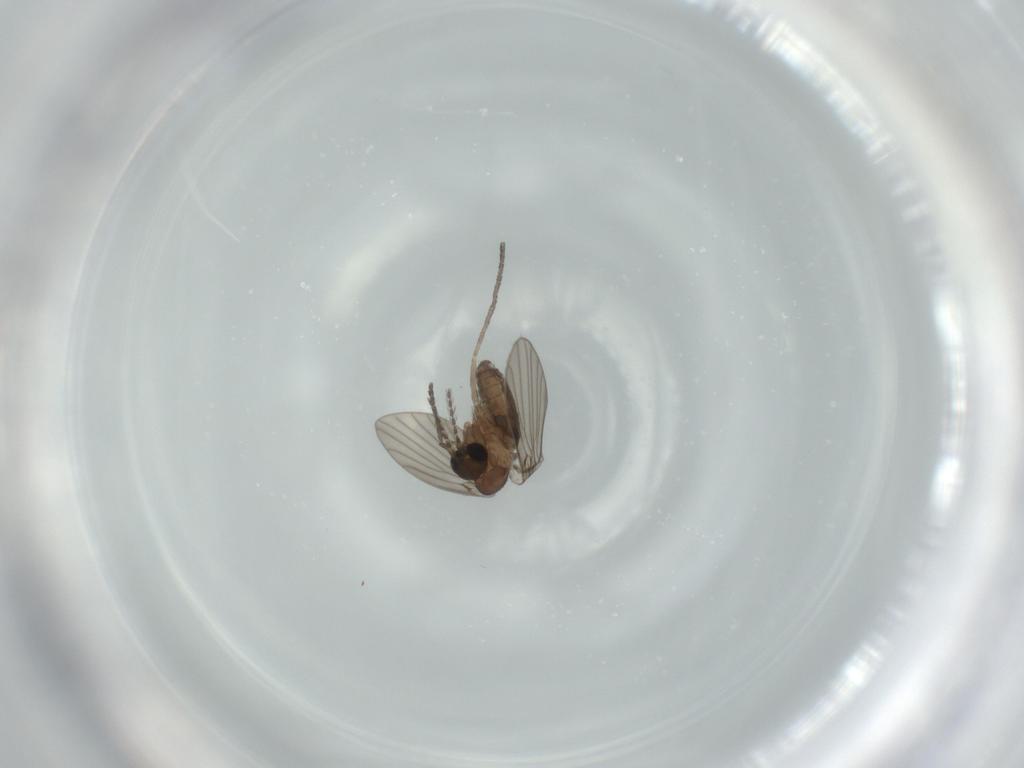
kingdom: Animalia
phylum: Arthropoda
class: Insecta
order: Diptera
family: Psychodidae
